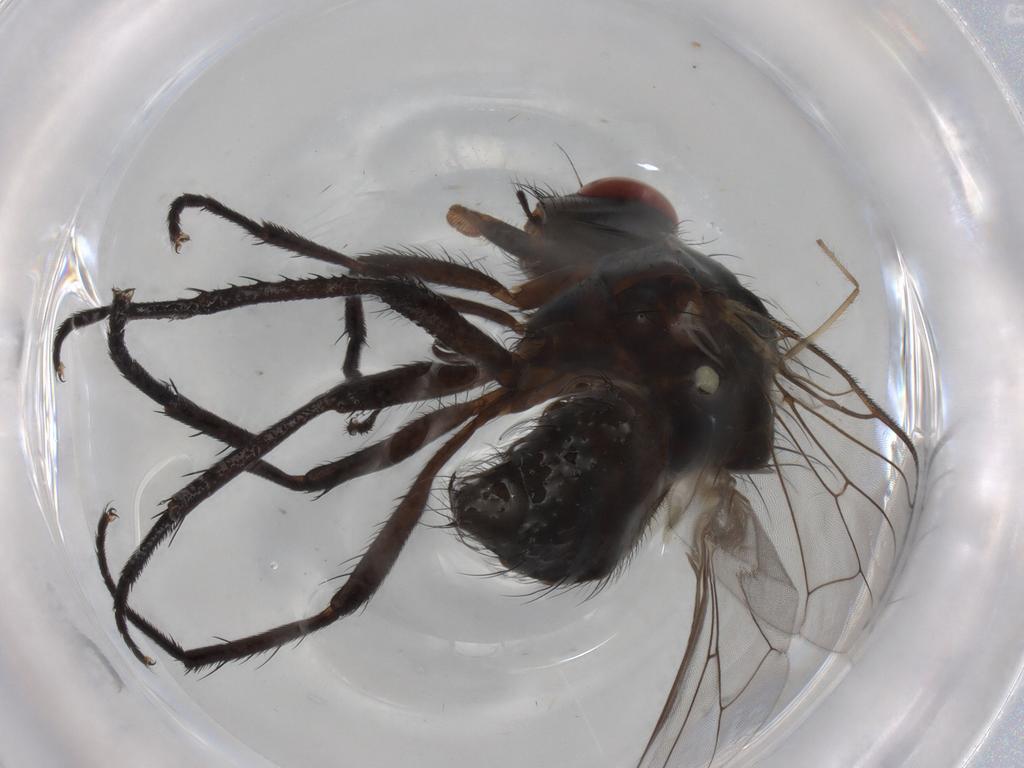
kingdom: Animalia
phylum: Arthropoda
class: Insecta
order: Diptera
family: Anthomyiidae
